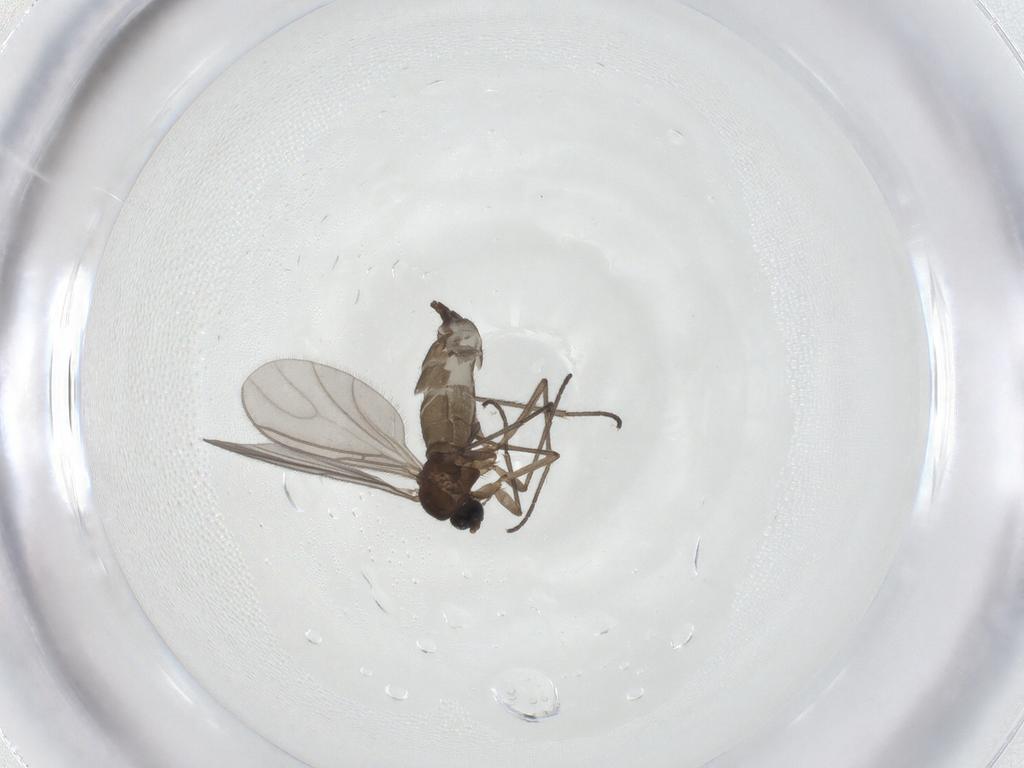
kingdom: Animalia
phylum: Arthropoda
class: Insecta
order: Diptera
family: Sciaridae
